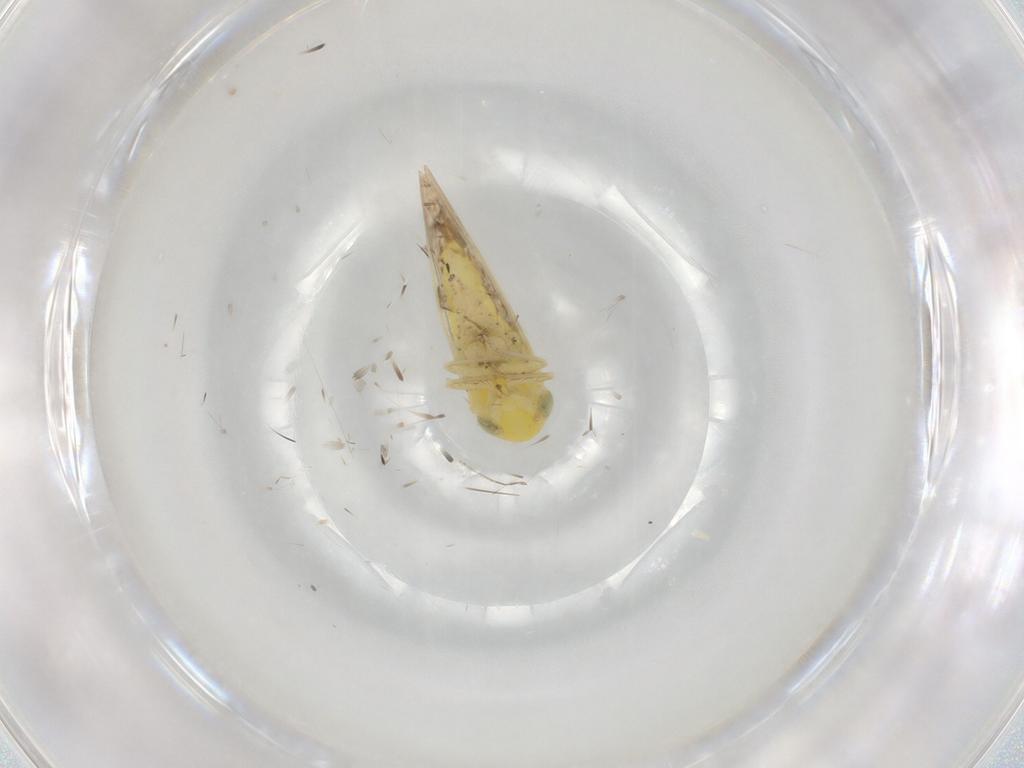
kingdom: Animalia
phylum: Arthropoda
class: Insecta
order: Hemiptera
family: Cicadellidae
